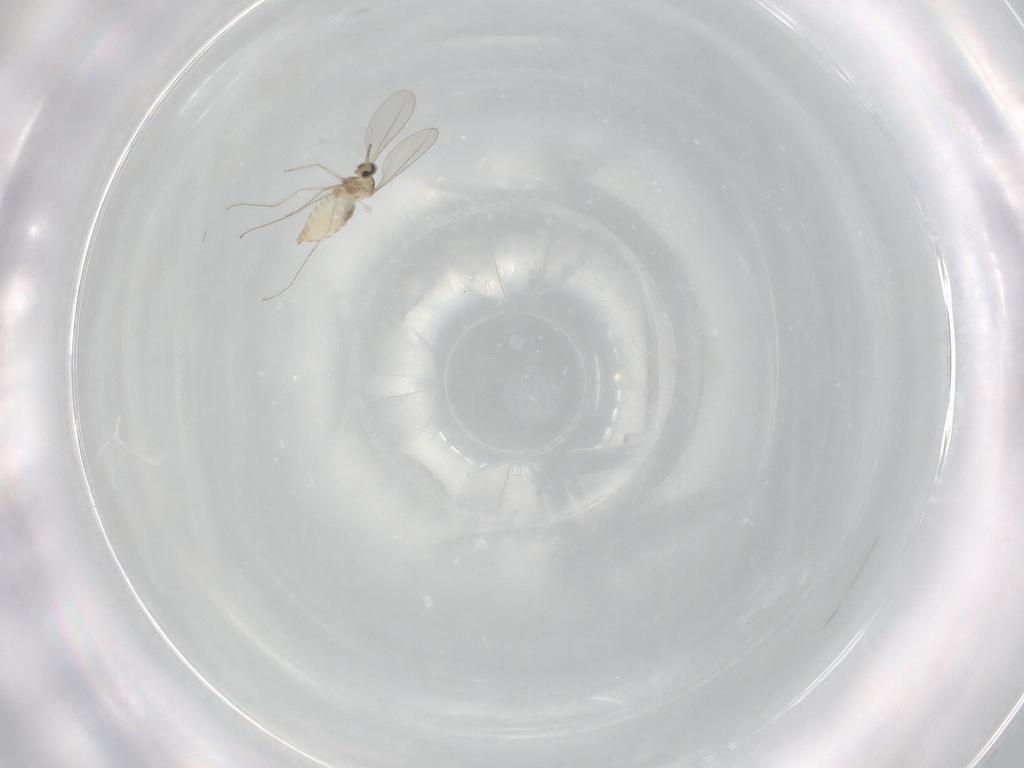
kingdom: Animalia
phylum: Arthropoda
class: Insecta
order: Diptera
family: Cecidomyiidae
